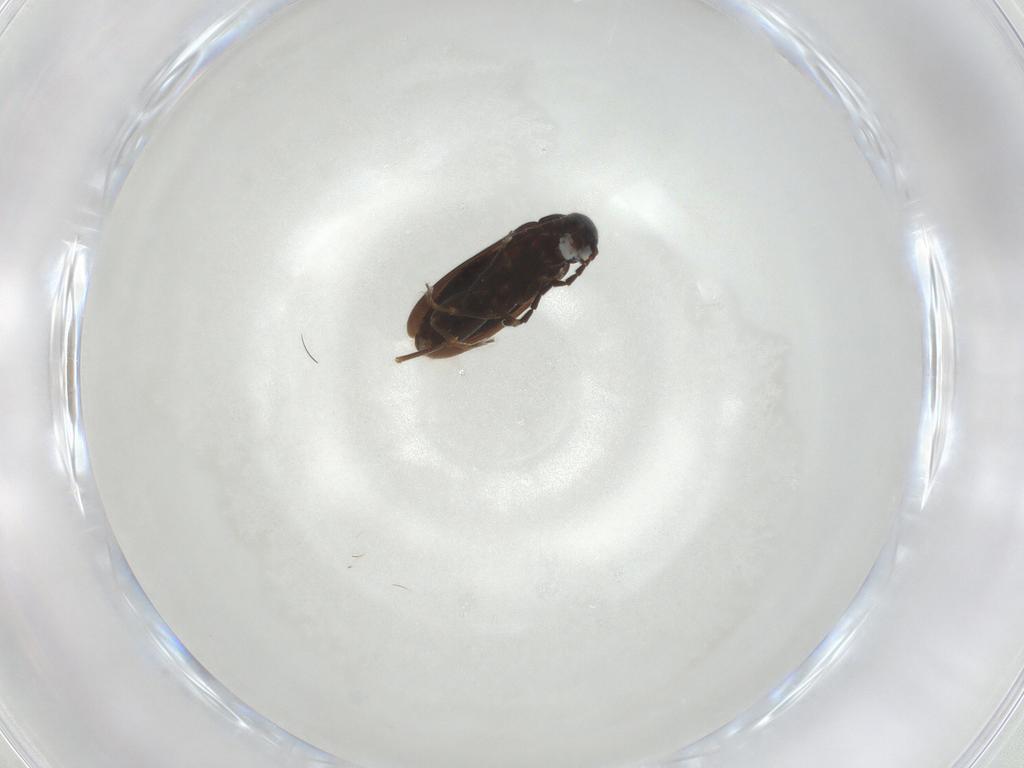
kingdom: Animalia
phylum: Arthropoda
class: Insecta
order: Coleoptera
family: Scraptiidae
